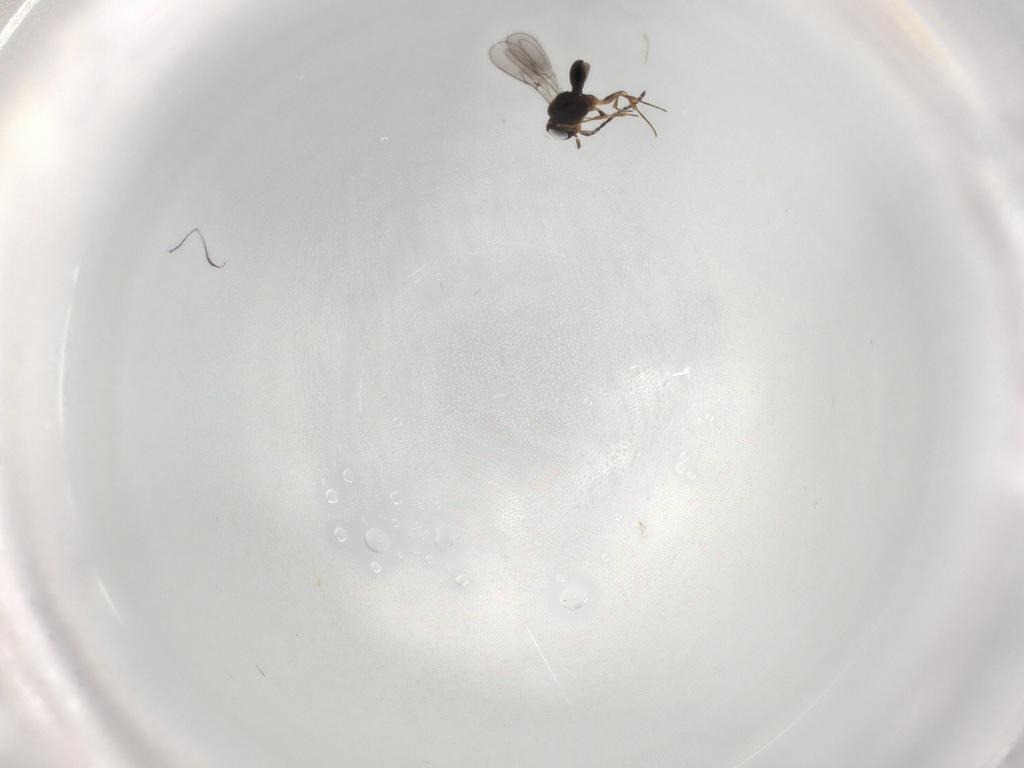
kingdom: Animalia
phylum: Arthropoda
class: Insecta
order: Hymenoptera
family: Scelionidae
